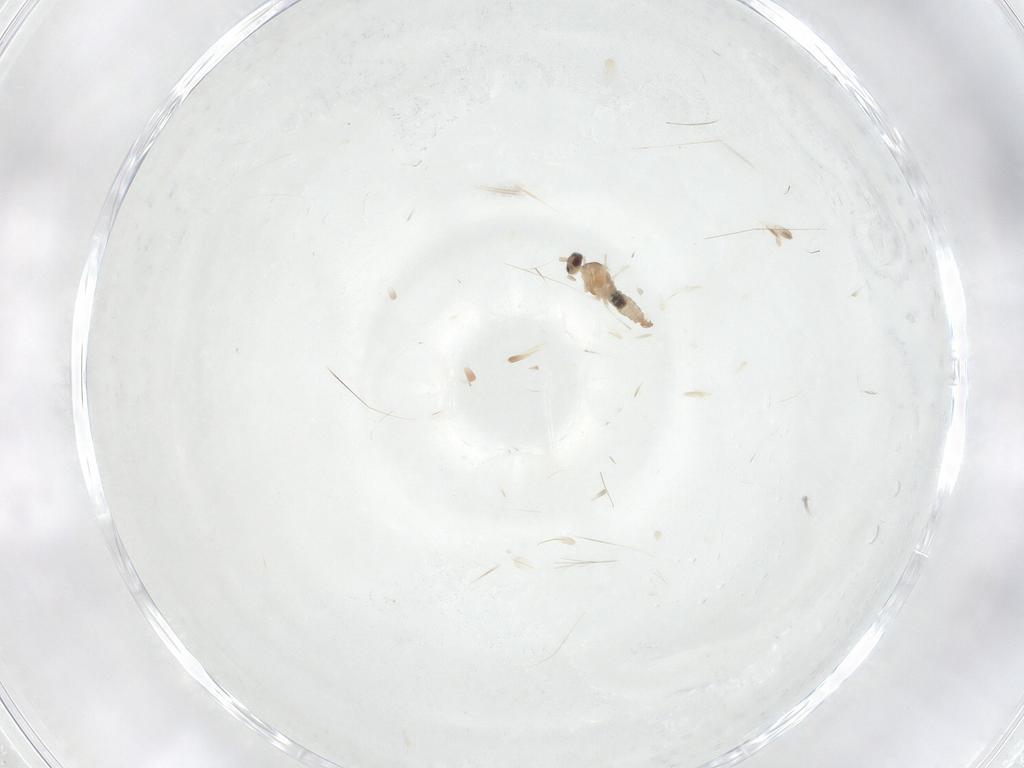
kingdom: Animalia
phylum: Arthropoda
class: Insecta
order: Diptera
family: Cecidomyiidae
